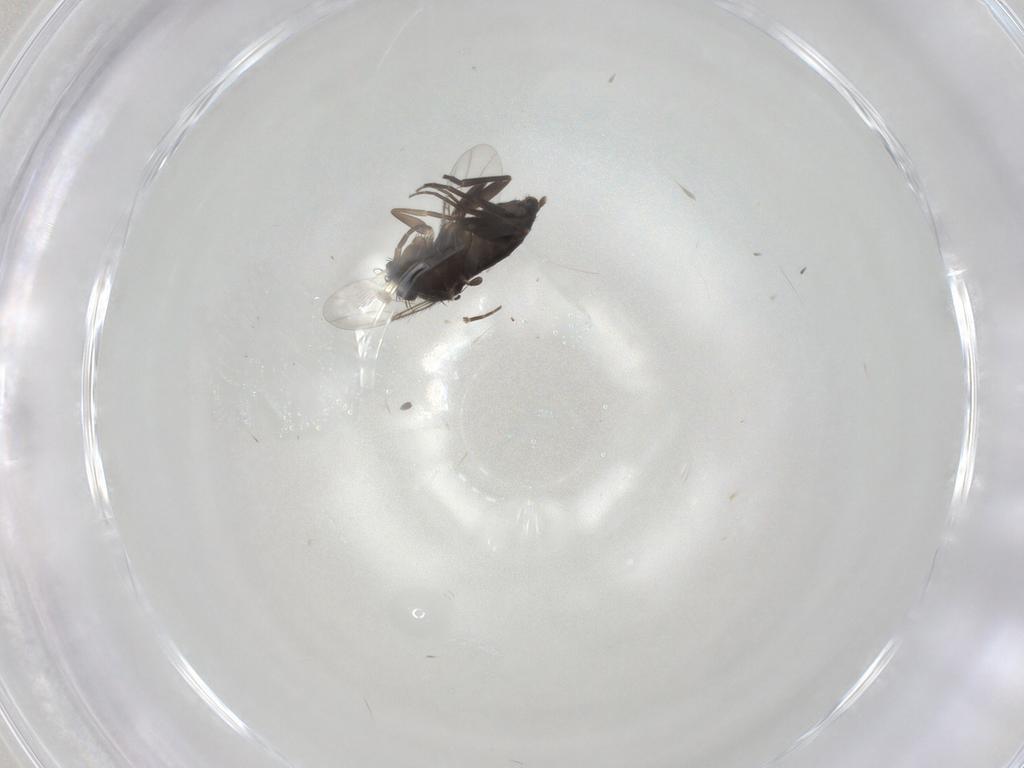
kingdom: Animalia
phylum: Arthropoda
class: Insecta
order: Diptera
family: Phoridae
